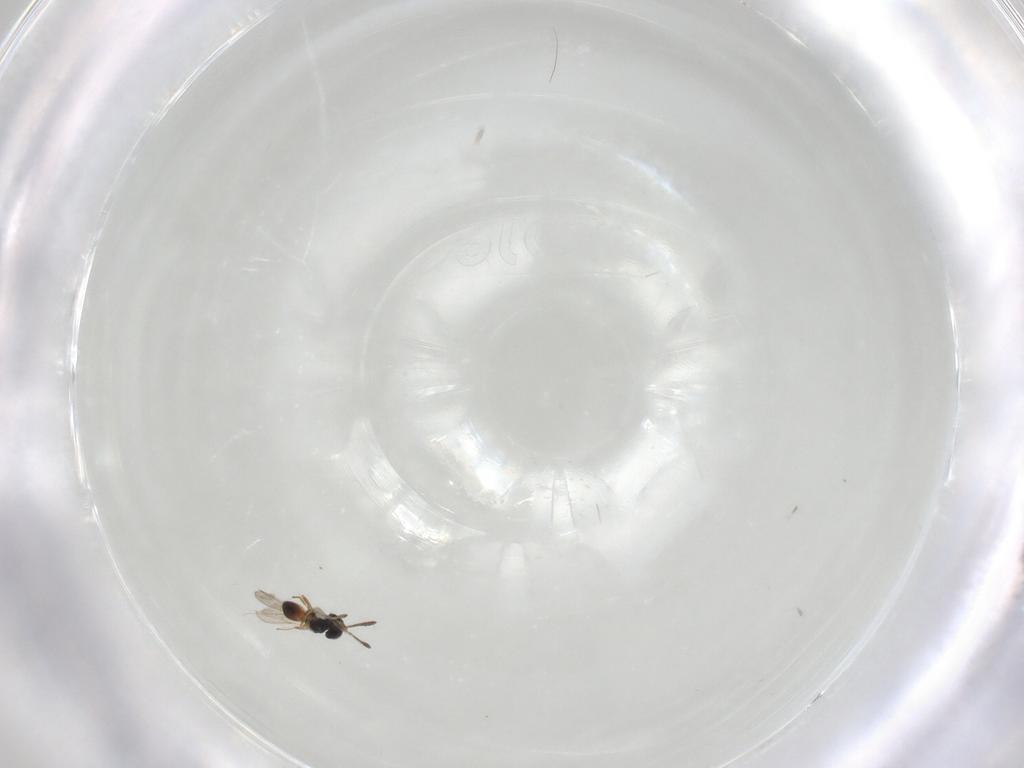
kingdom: Animalia
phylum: Arthropoda
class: Insecta
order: Hymenoptera
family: Scelionidae
